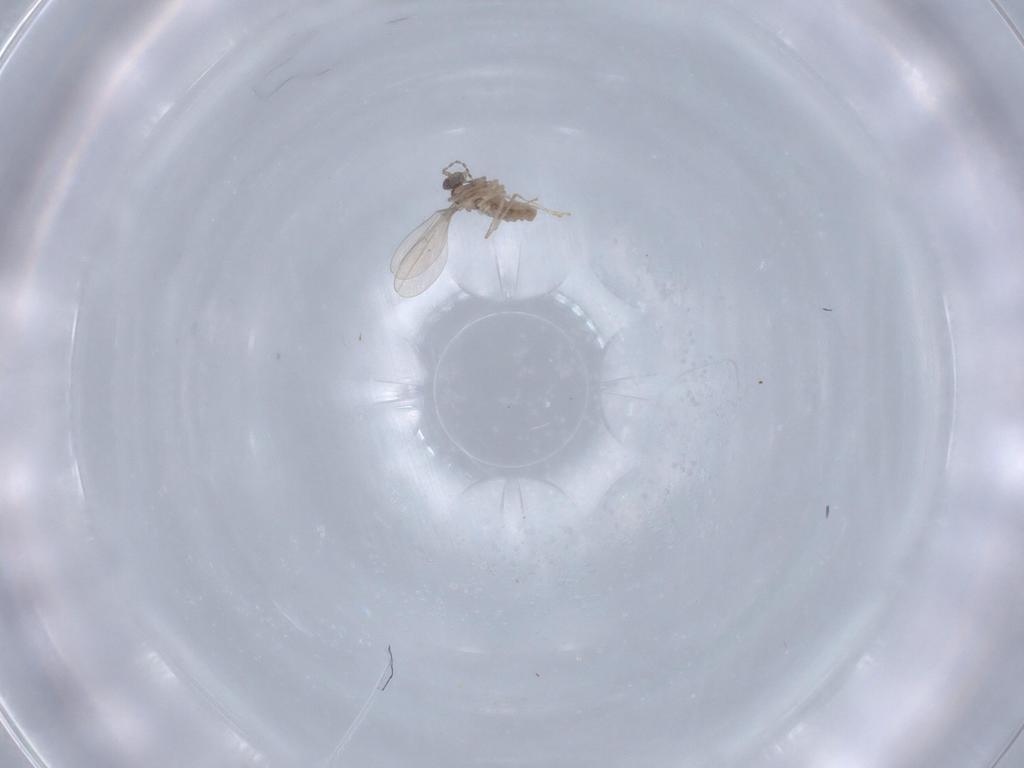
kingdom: Animalia
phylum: Arthropoda
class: Insecta
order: Diptera
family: Cecidomyiidae
